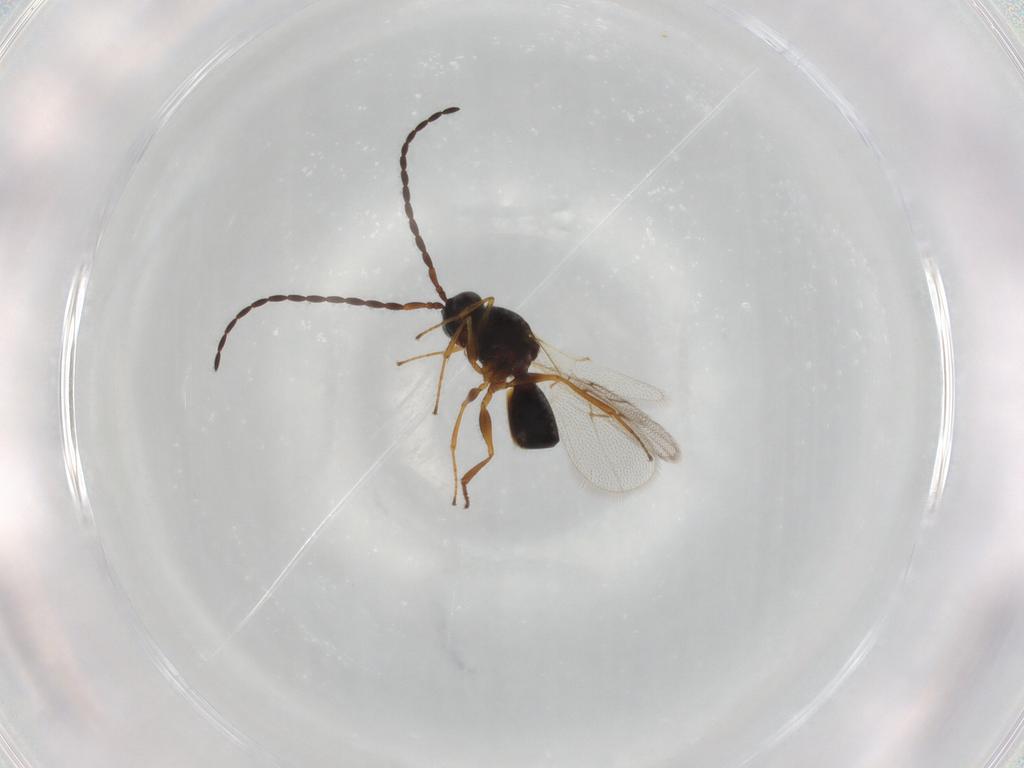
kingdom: Animalia
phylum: Arthropoda
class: Insecta
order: Hymenoptera
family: Figitidae
